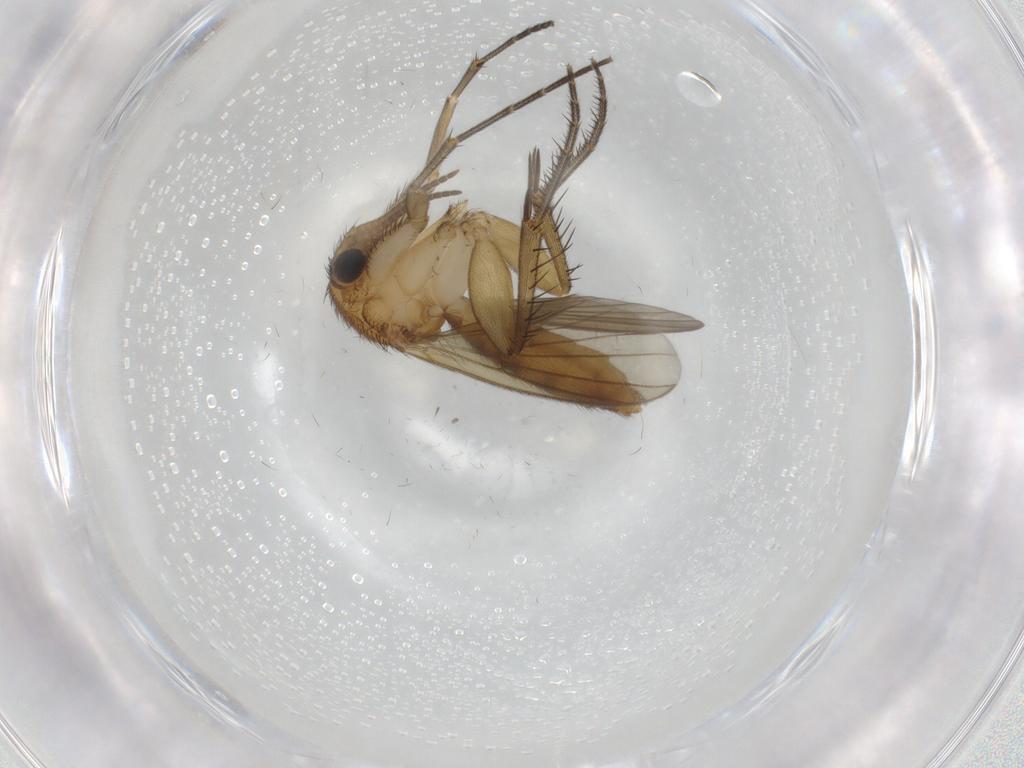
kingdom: Animalia
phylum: Arthropoda
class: Insecta
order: Diptera
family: Mycetophilidae
